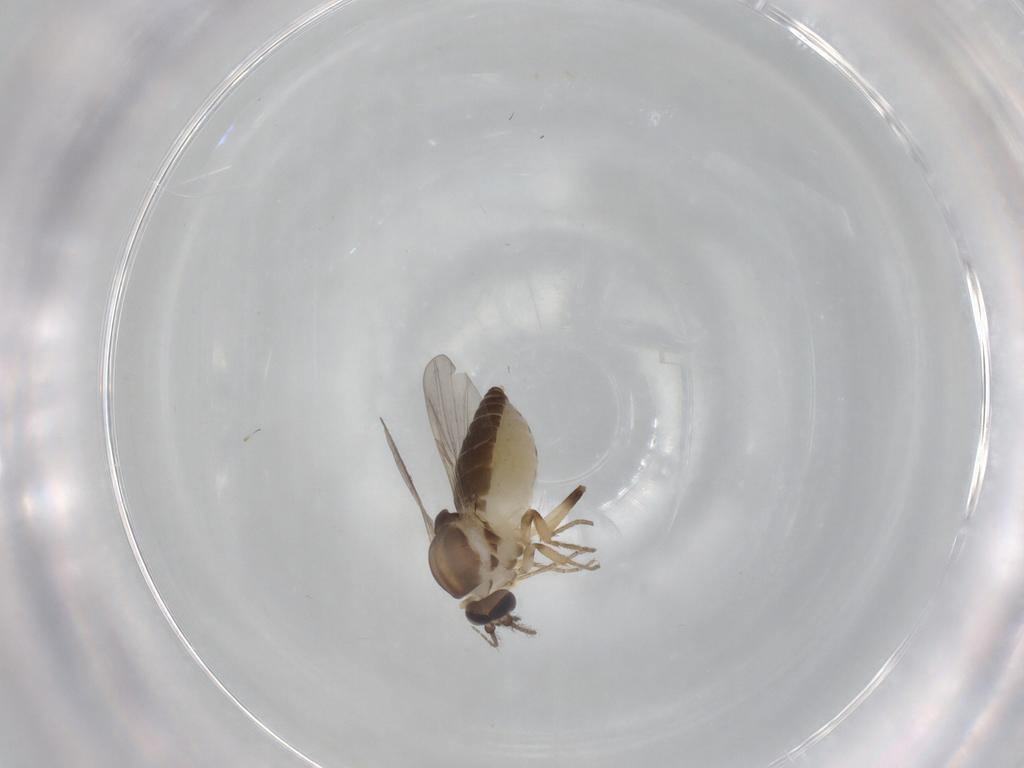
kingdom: Animalia
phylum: Arthropoda
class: Insecta
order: Diptera
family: Ceratopogonidae
